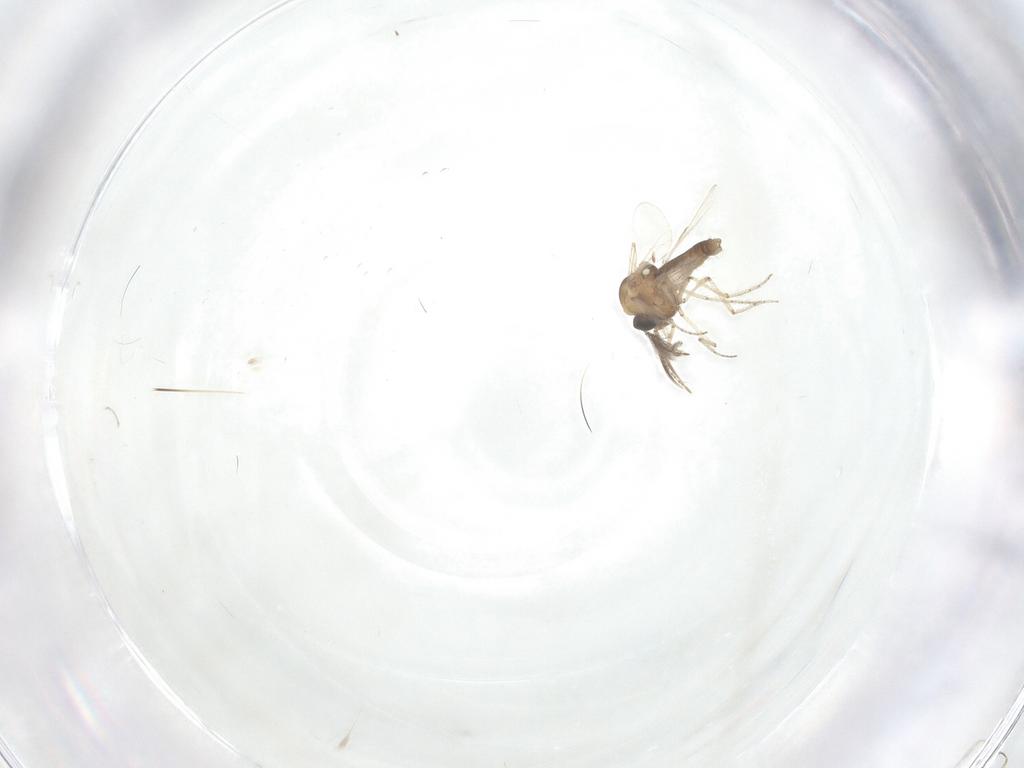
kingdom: Animalia
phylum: Arthropoda
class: Insecta
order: Diptera
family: Ceratopogonidae
